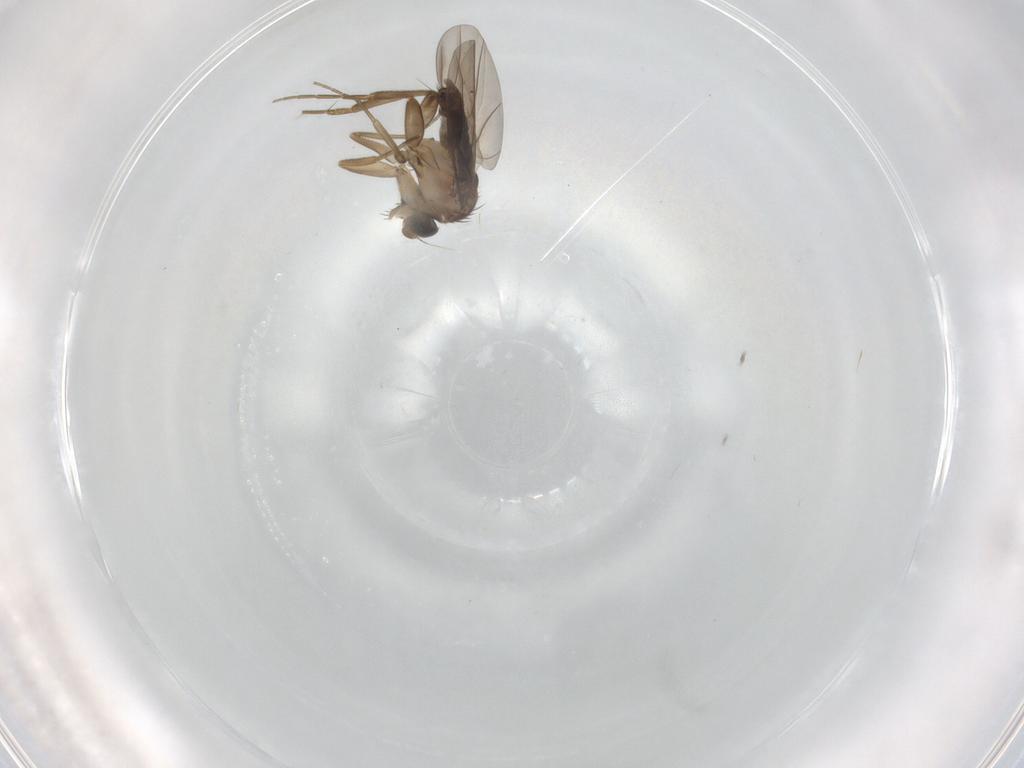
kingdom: Animalia
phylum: Arthropoda
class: Insecta
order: Diptera
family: Phoridae
